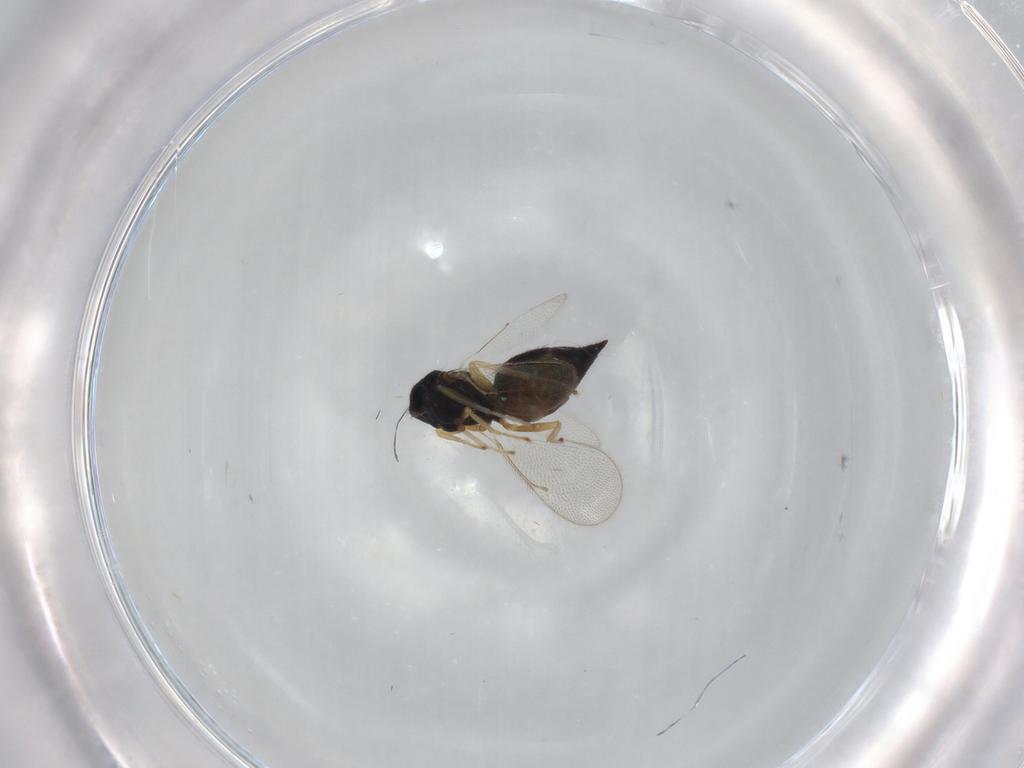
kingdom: Animalia
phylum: Arthropoda
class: Insecta
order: Hymenoptera
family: Eulophidae
